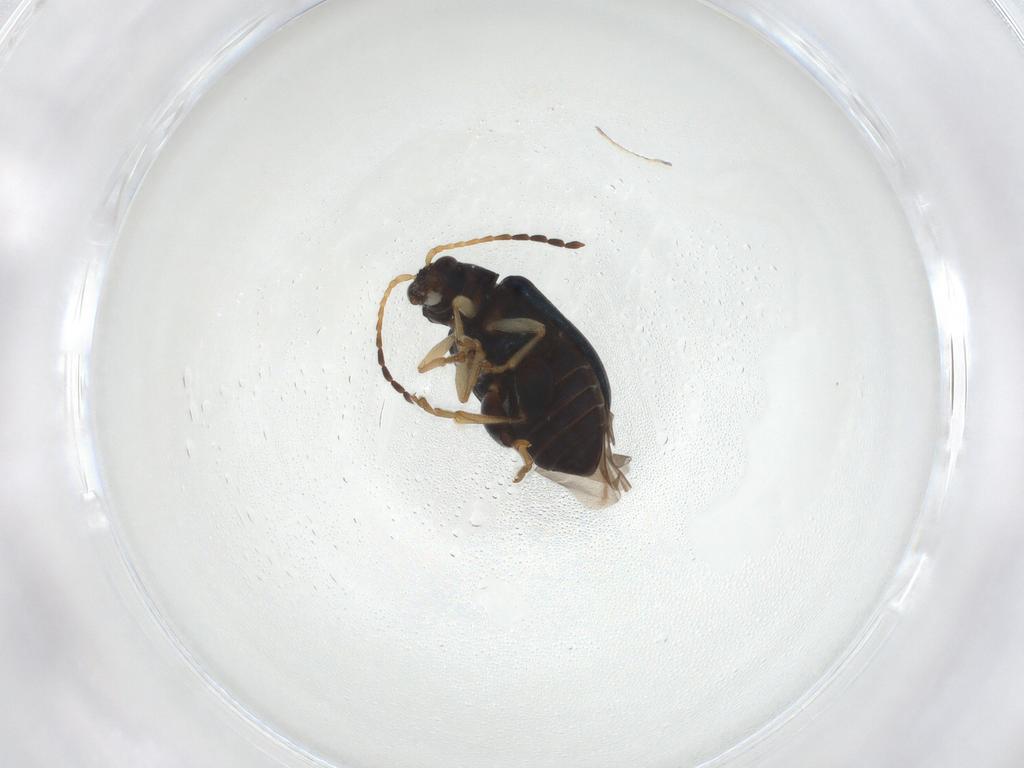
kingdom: Animalia
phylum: Arthropoda
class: Insecta
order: Coleoptera
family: Chrysomelidae
